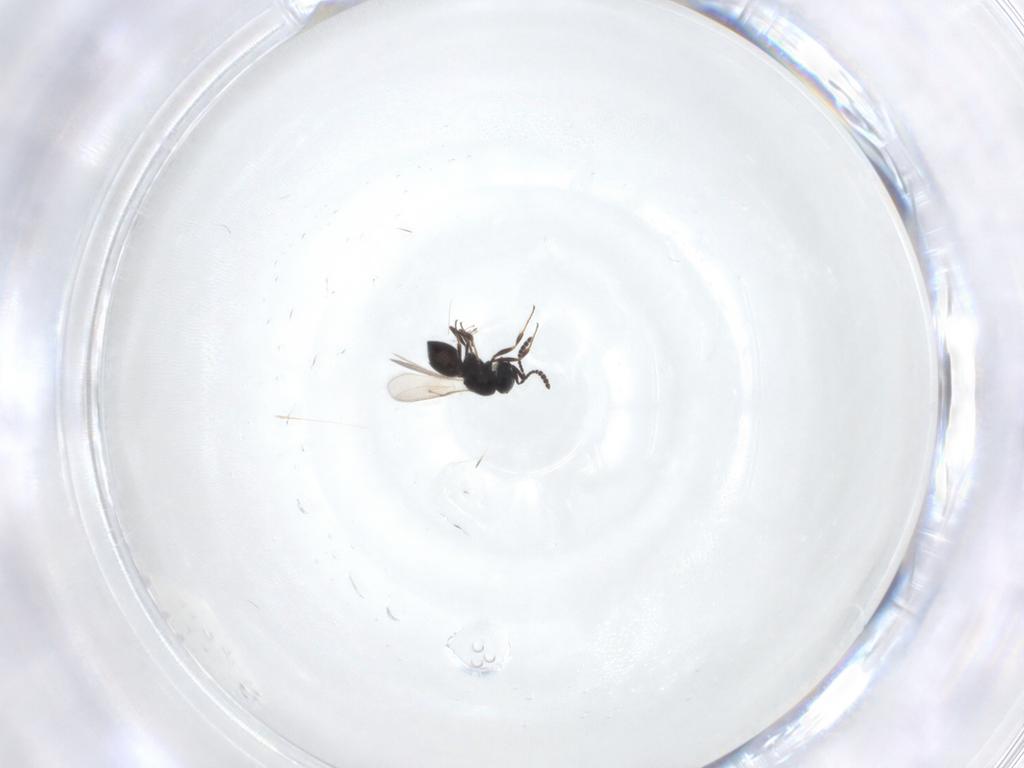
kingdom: Animalia
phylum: Arthropoda
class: Insecta
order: Hymenoptera
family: Scelionidae
